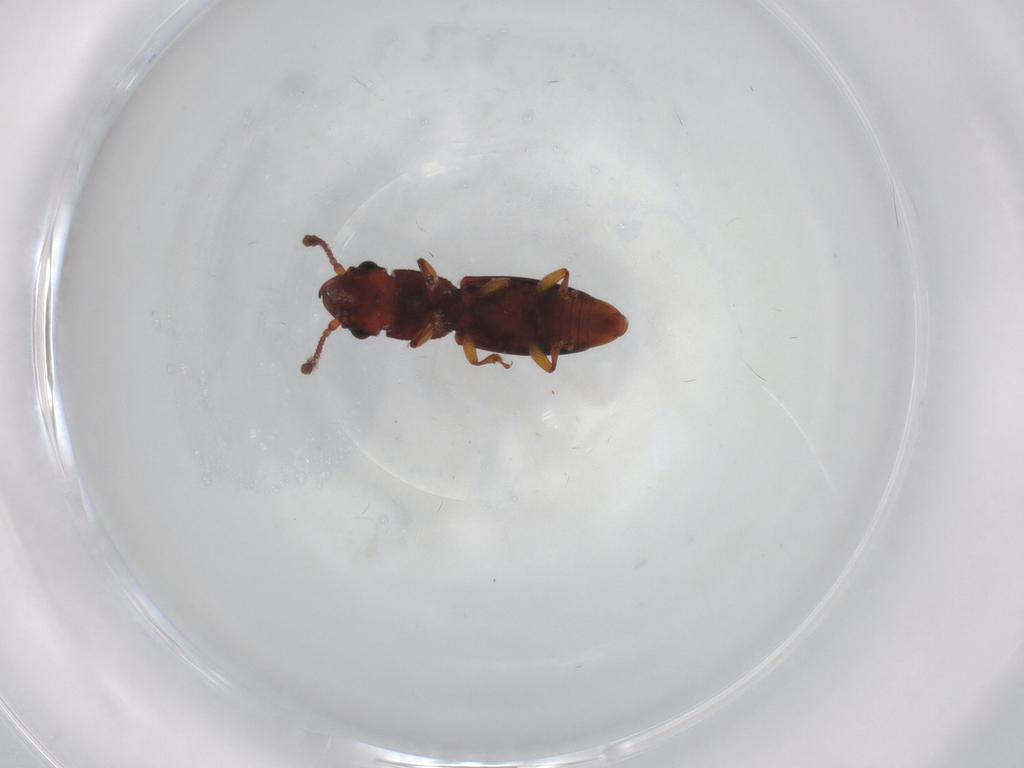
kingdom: Animalia
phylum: Arthropoda
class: Insecta
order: Coleoptera
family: Monotomidae
